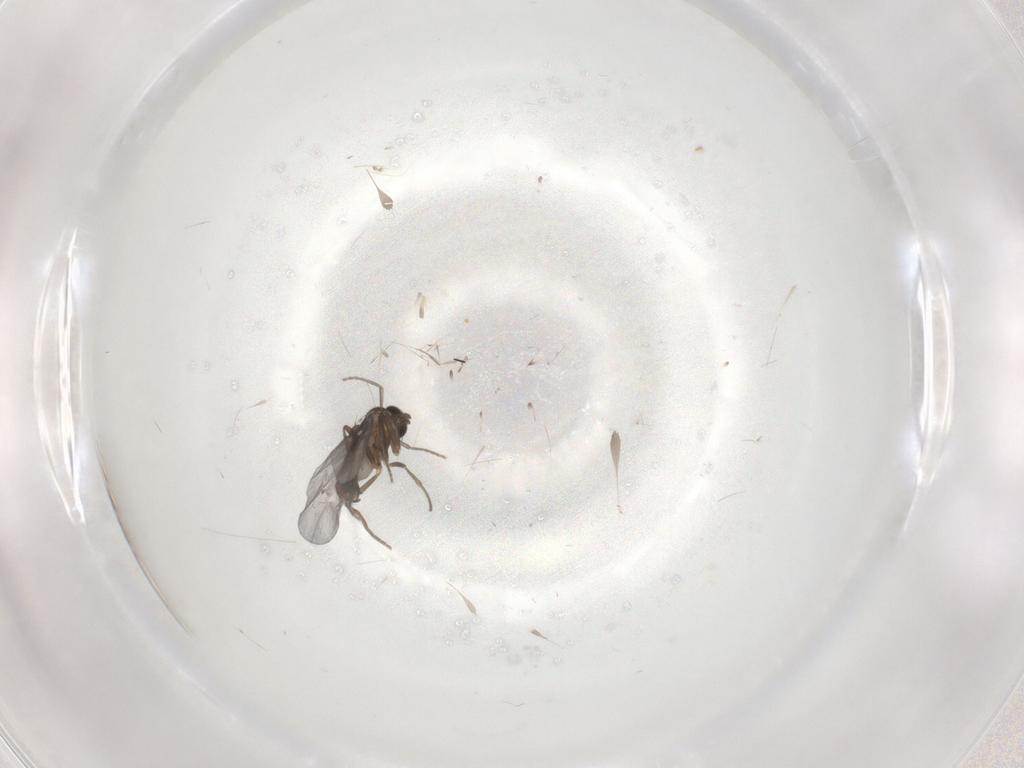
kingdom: Animalia
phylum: Arthropoda
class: Insecta
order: Diptera
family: Phoridae
